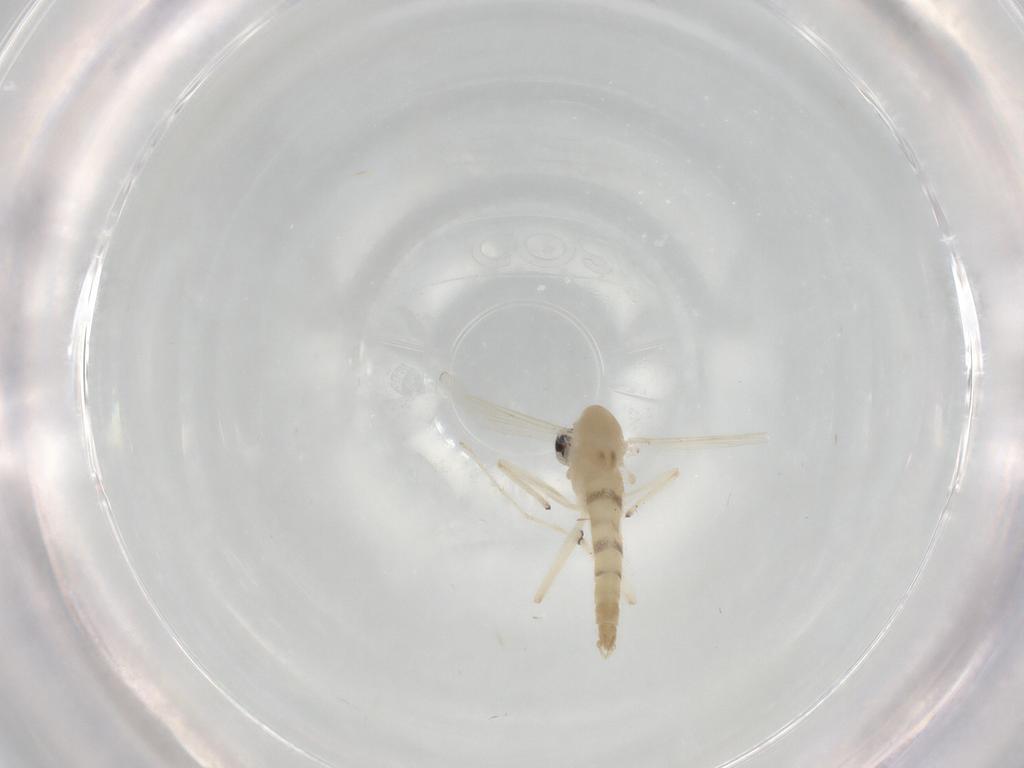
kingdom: Animalia
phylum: Arthropoda
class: Insecta
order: Diptera
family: Chironomidae
